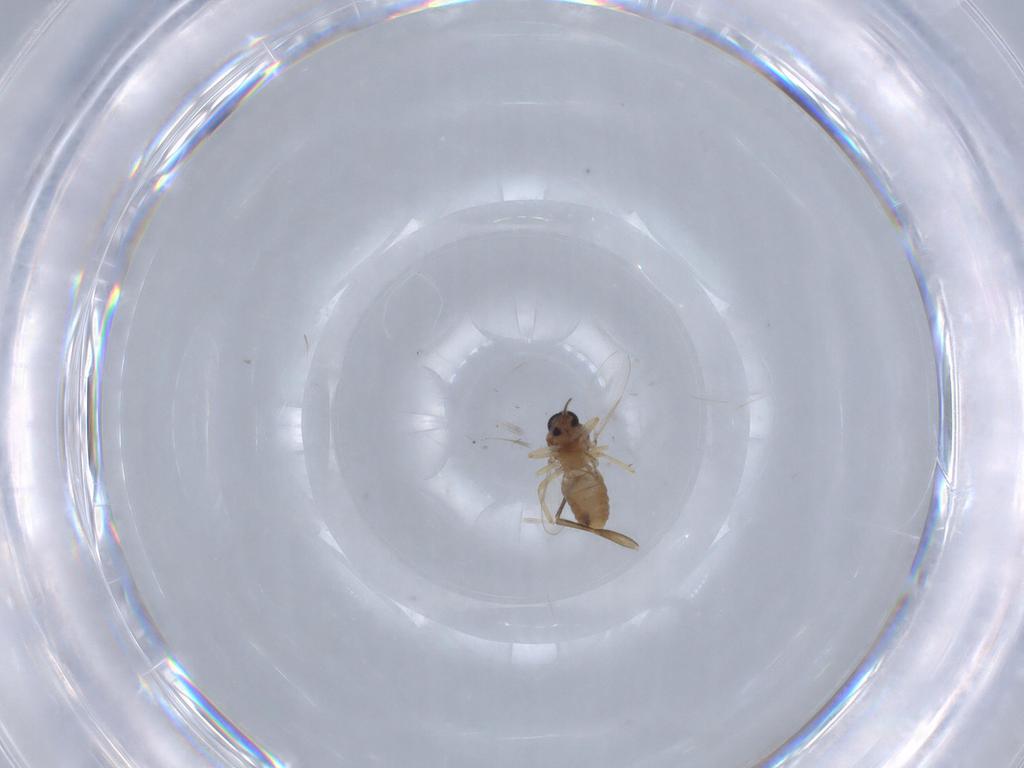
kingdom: Animalia
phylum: Arthropoda
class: Insecta
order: Diptera
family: Ceratopogonidae
